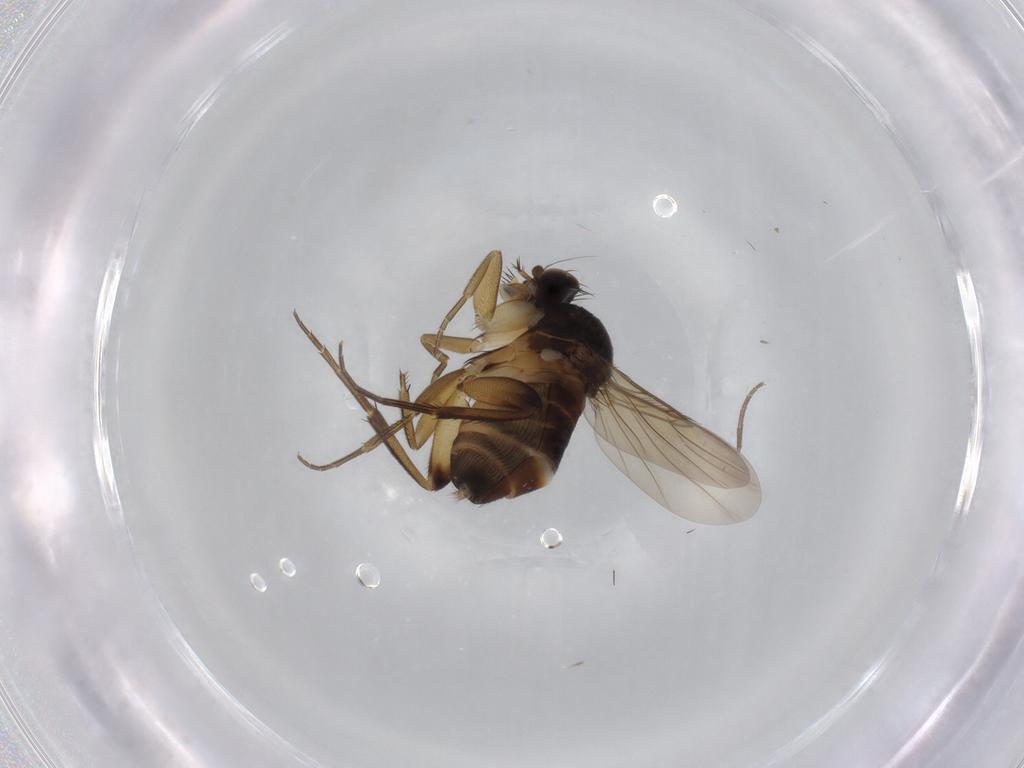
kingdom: Animalia
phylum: Arthropoda
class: Insecta
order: Diptera
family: Phoridae
